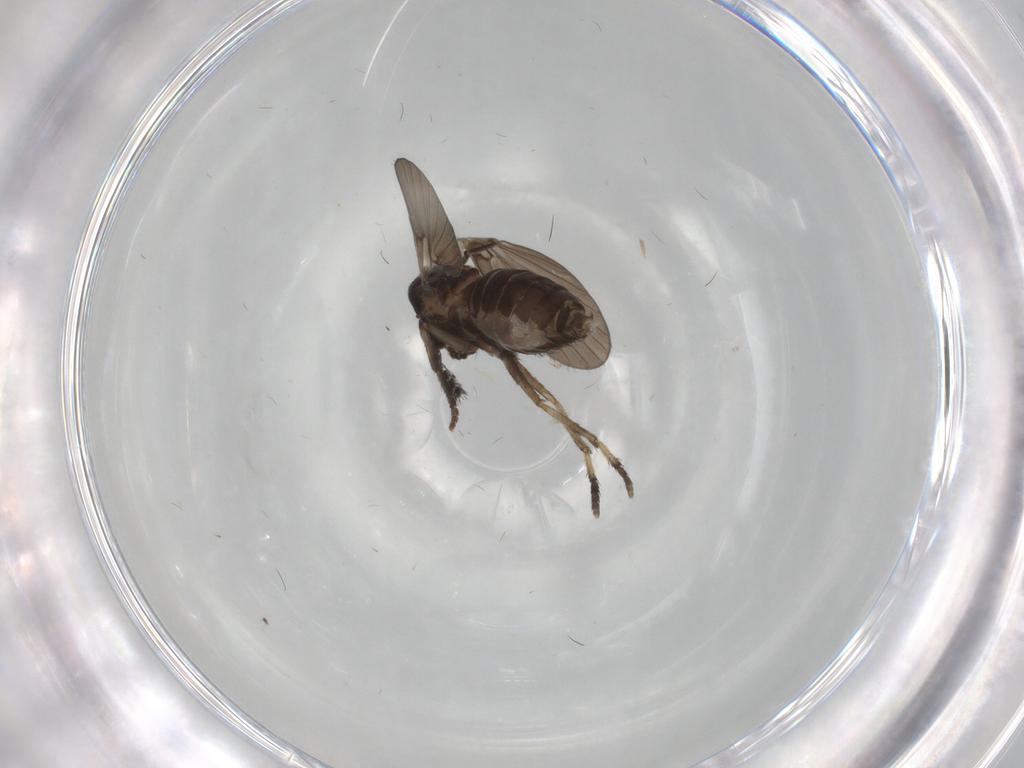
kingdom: Animalia
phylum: Arthropoda
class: Insecta
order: Diptera
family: Psychodidae
